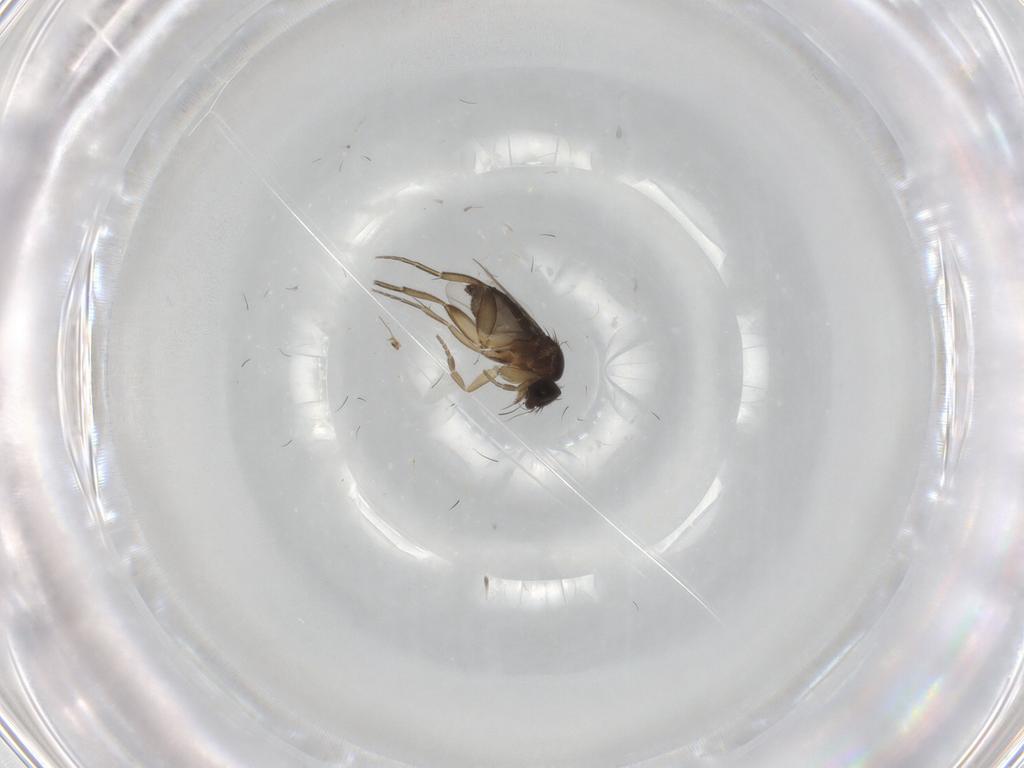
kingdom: Animalia
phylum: Arthropoda
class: Insecta
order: Diptera
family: Phoridae
